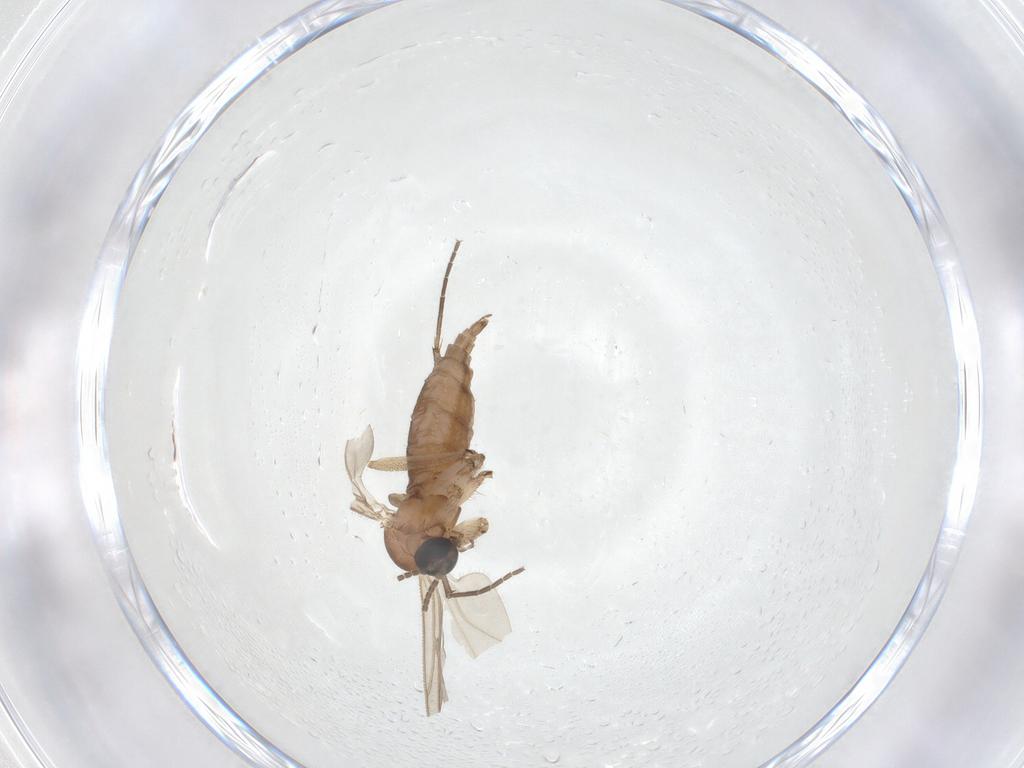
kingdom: Animalia
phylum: Arthropoda
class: Insecta
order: Diptera
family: Sciaridae
